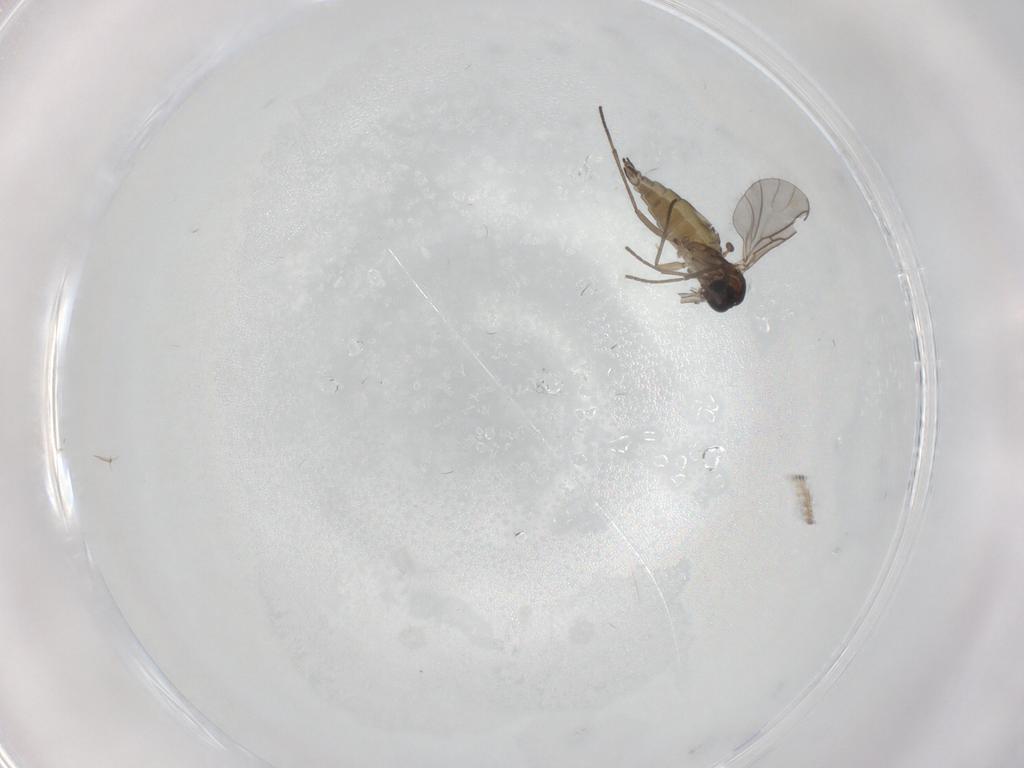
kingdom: Animalia
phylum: Arthropoda
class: Insecta
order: Diptera
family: Sciaridae
